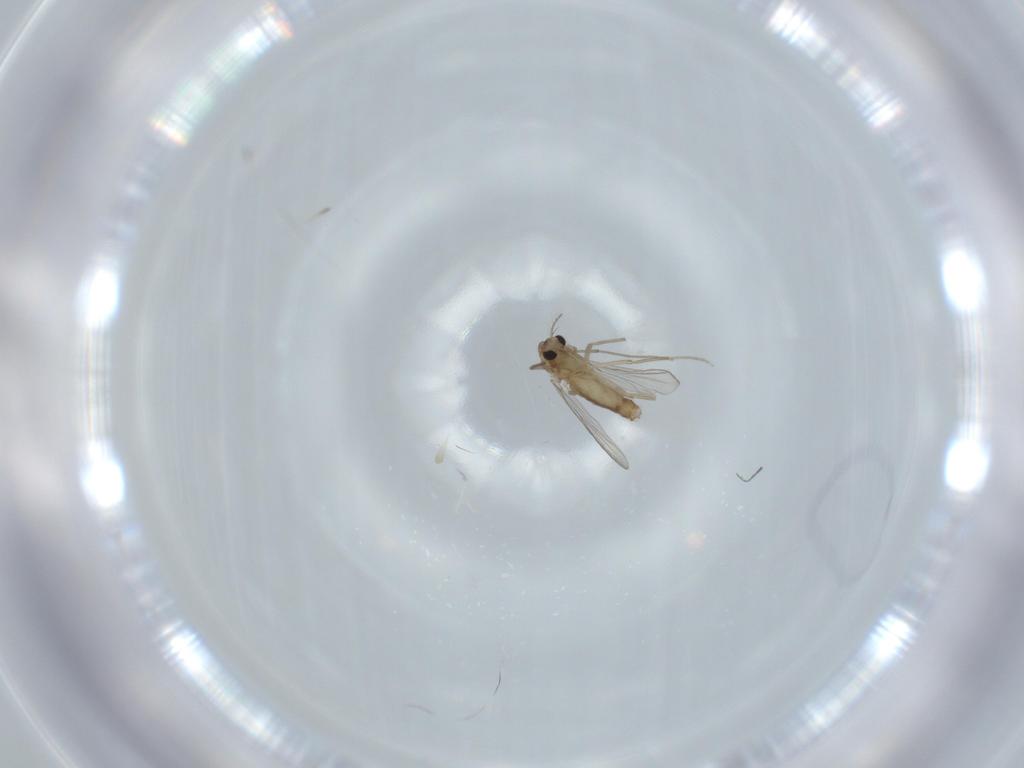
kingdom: Animalia
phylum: Arthropoda
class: Insecta
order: Diptera
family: Chironomidae
